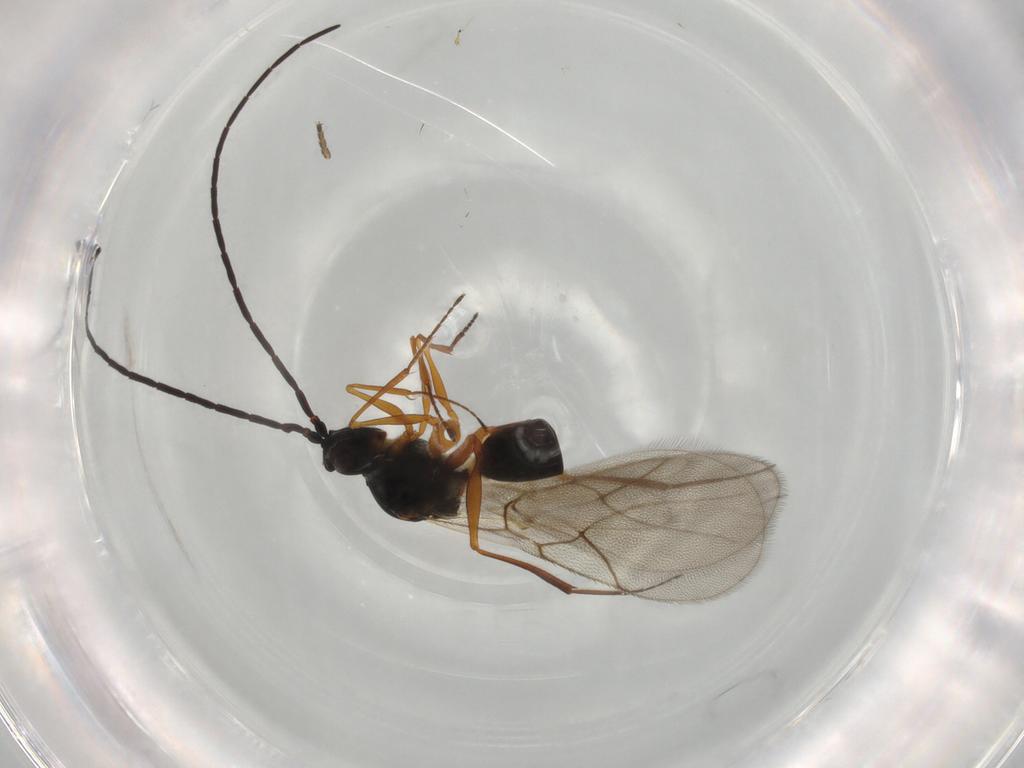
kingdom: Animalia
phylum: Arthropoda
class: Insecta
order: Hymenoptera
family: Figitidae
